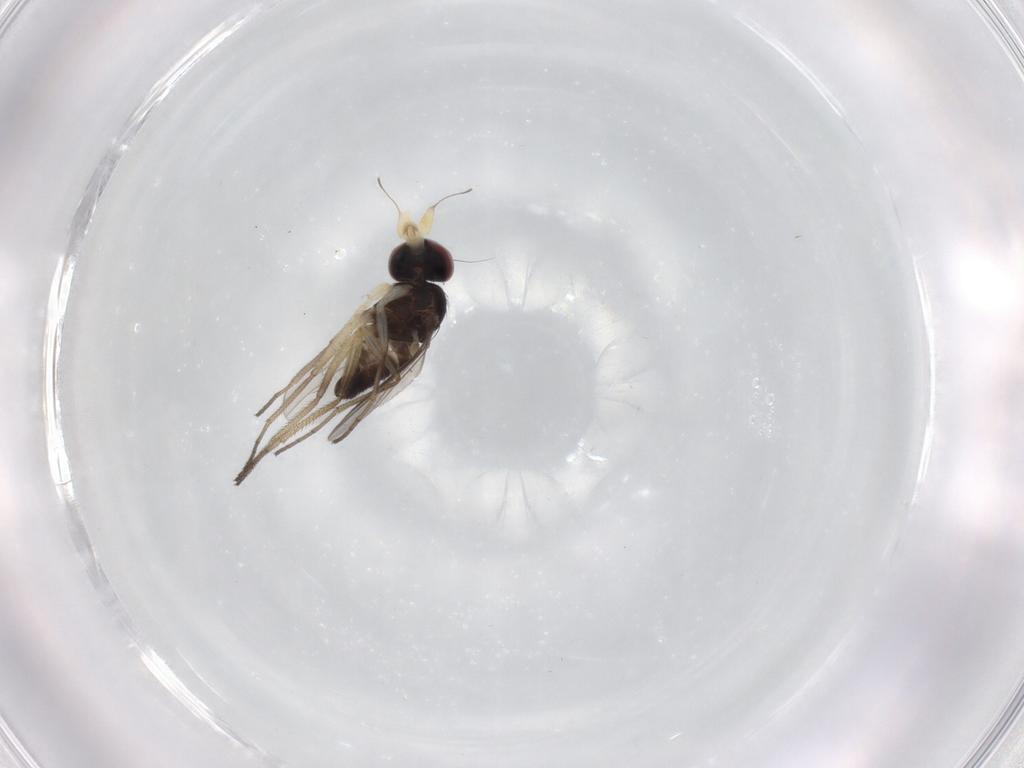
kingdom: Animalia
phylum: Arthropoda
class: Insecta
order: Diptera
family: Dolichopodidae
